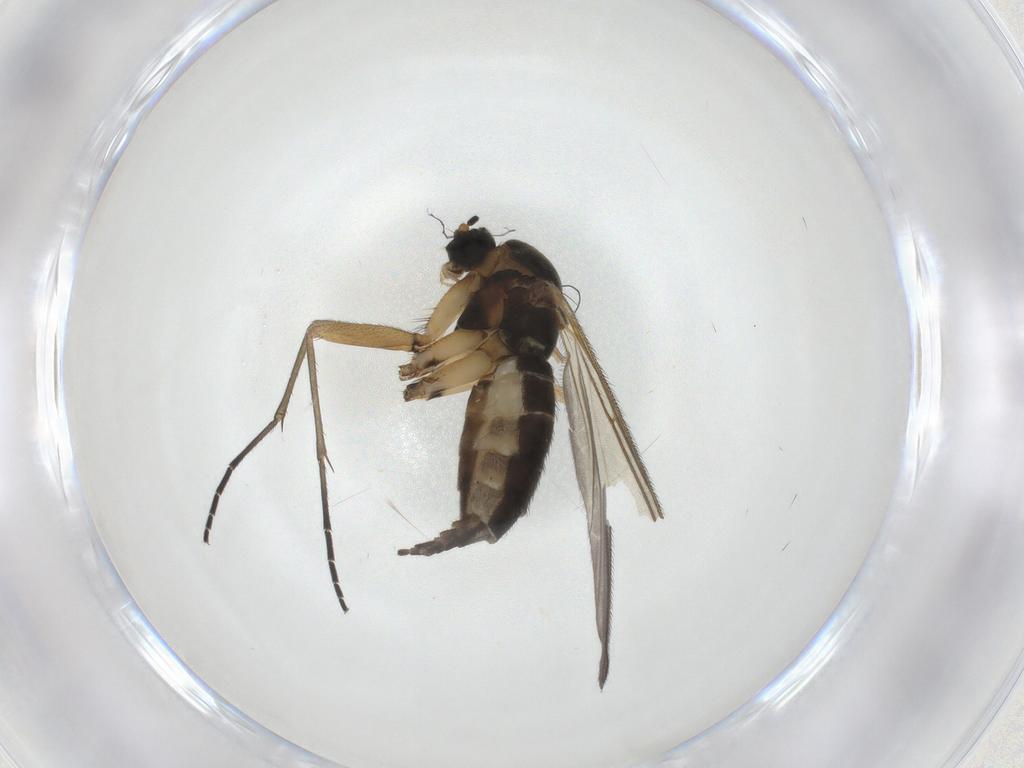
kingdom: Animalia
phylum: Arthropoda
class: Insecta
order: Diptera
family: Sciaridae
